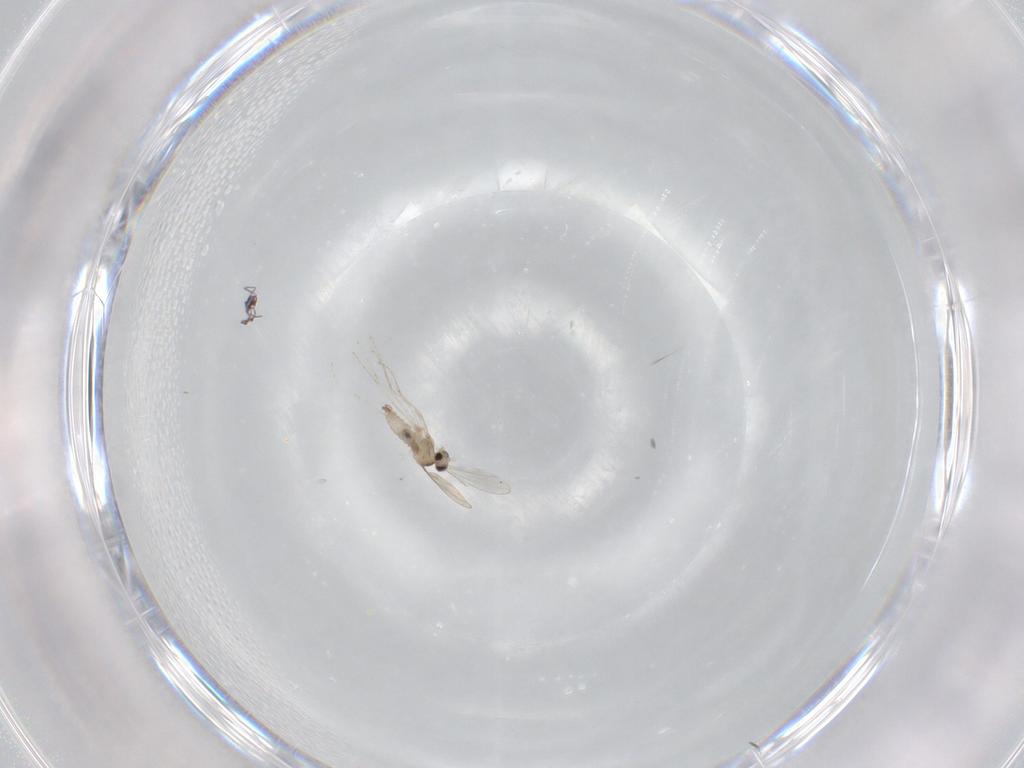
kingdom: Animalia
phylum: Arthropoda
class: Insecta
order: Diptera
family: Cecidomyiidae
